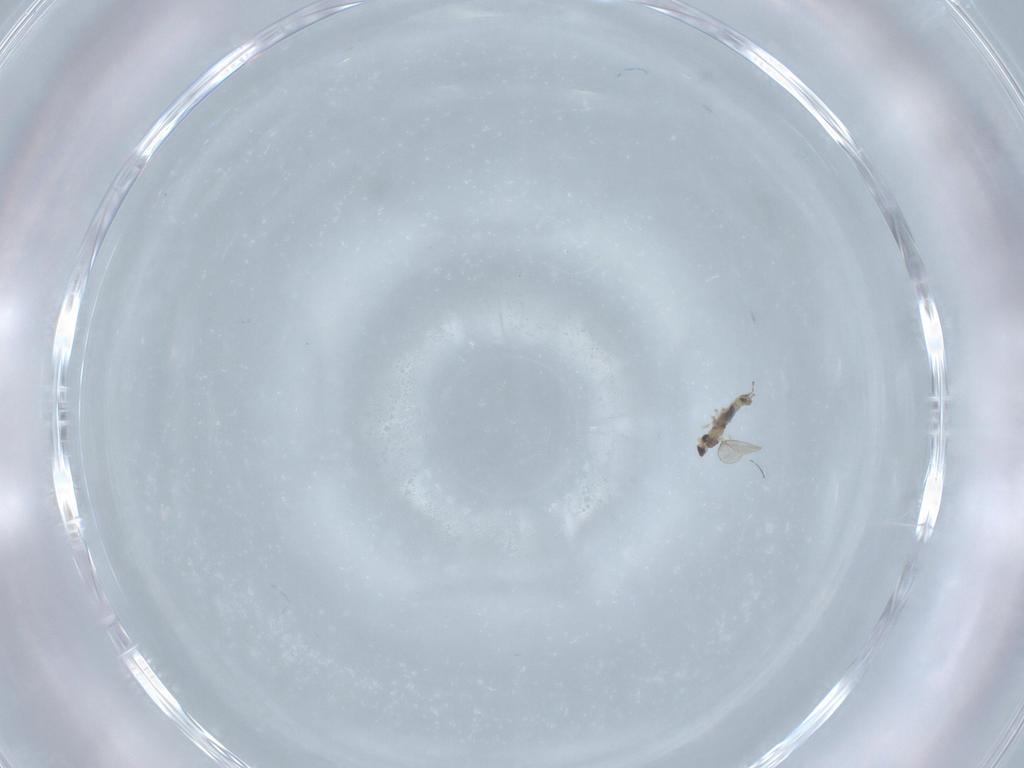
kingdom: Animalia
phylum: Arthropoda
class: Insecta
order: Diptera
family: Cecidomyiidae
